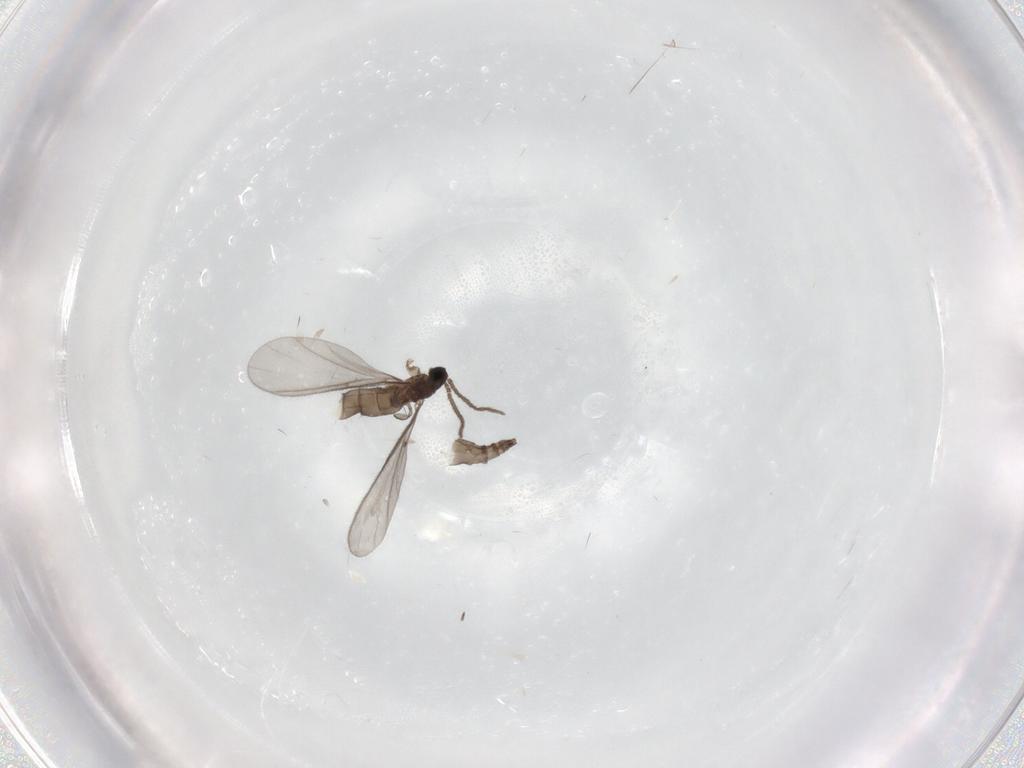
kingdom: Animalia
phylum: Arthropoda
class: Insecta
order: Diptera
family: Sciaridae
